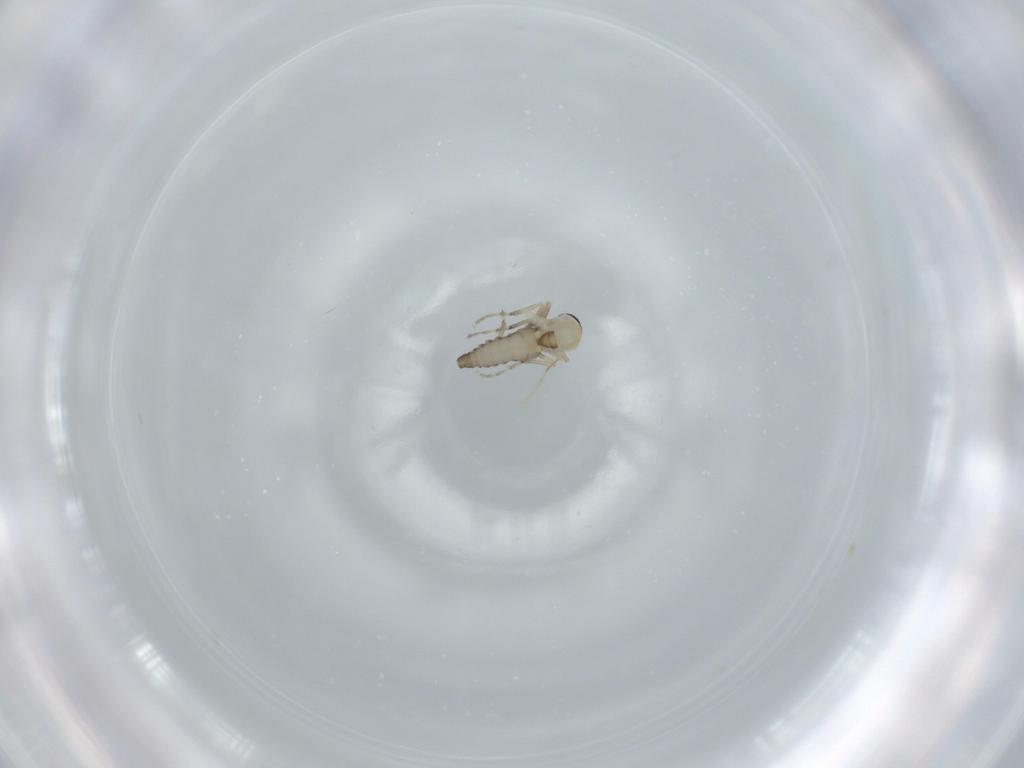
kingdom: Animalia
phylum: Arthropoda
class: Insecta
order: Diptera
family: Ceratopogonidae
